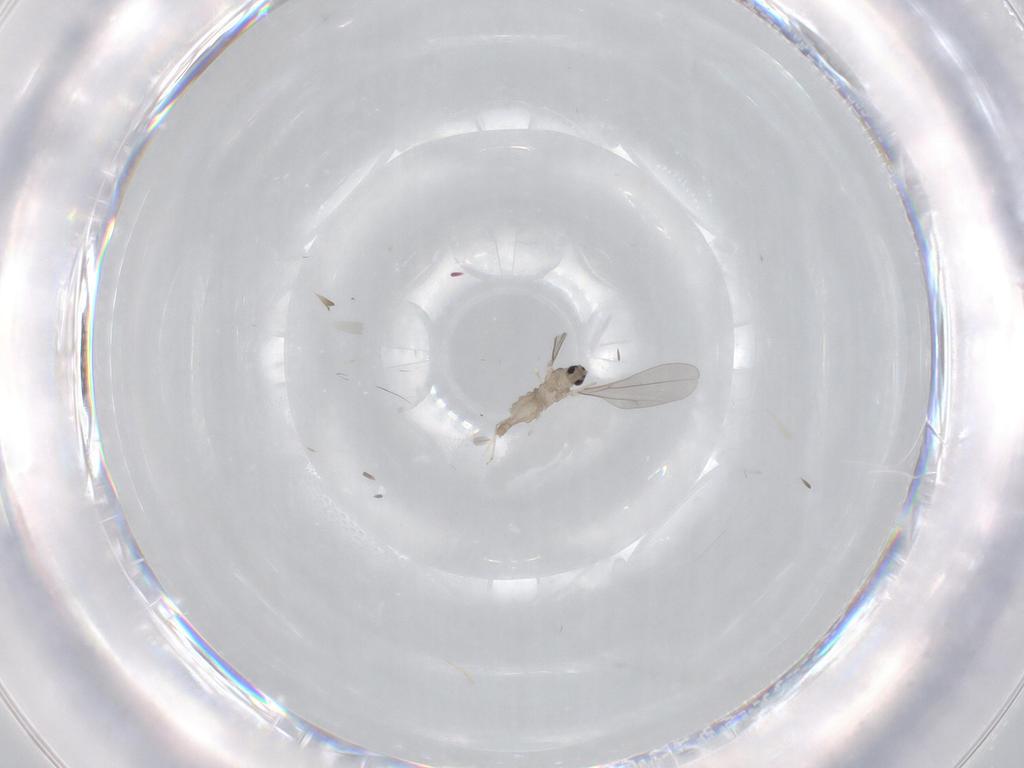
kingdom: Animalia
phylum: Arthropoda
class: Insecta
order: Diptera
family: Cecidomyiidae
